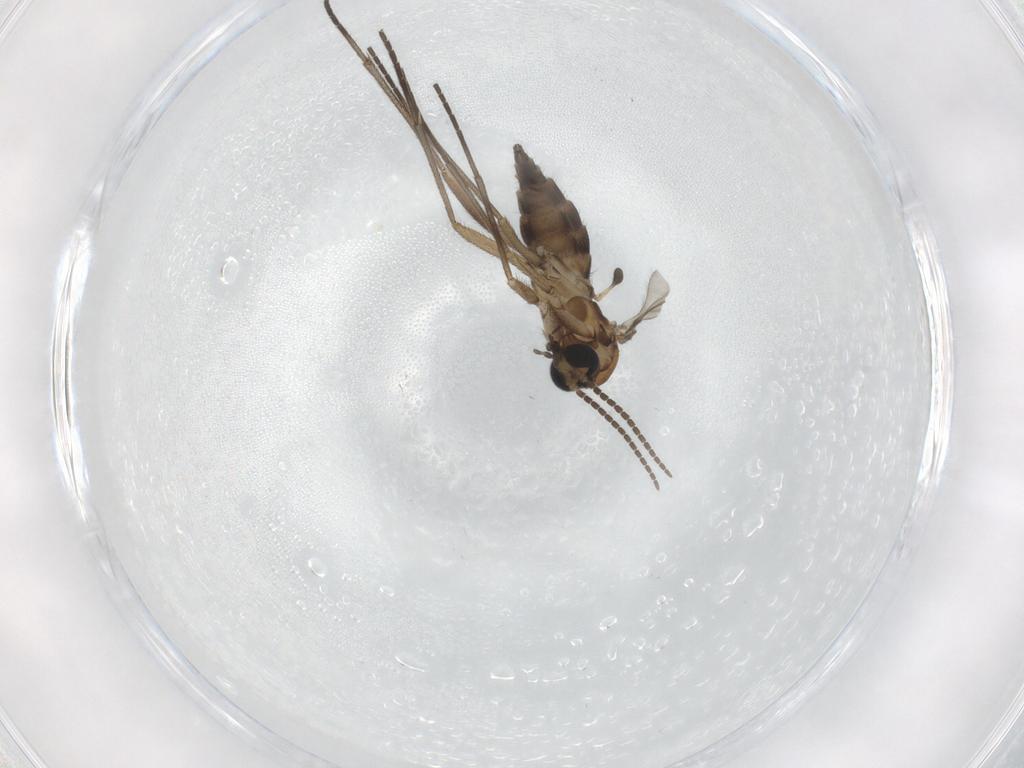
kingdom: Animalia
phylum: Arthropoda
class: Insecta
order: Diptera
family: Sciaridae
